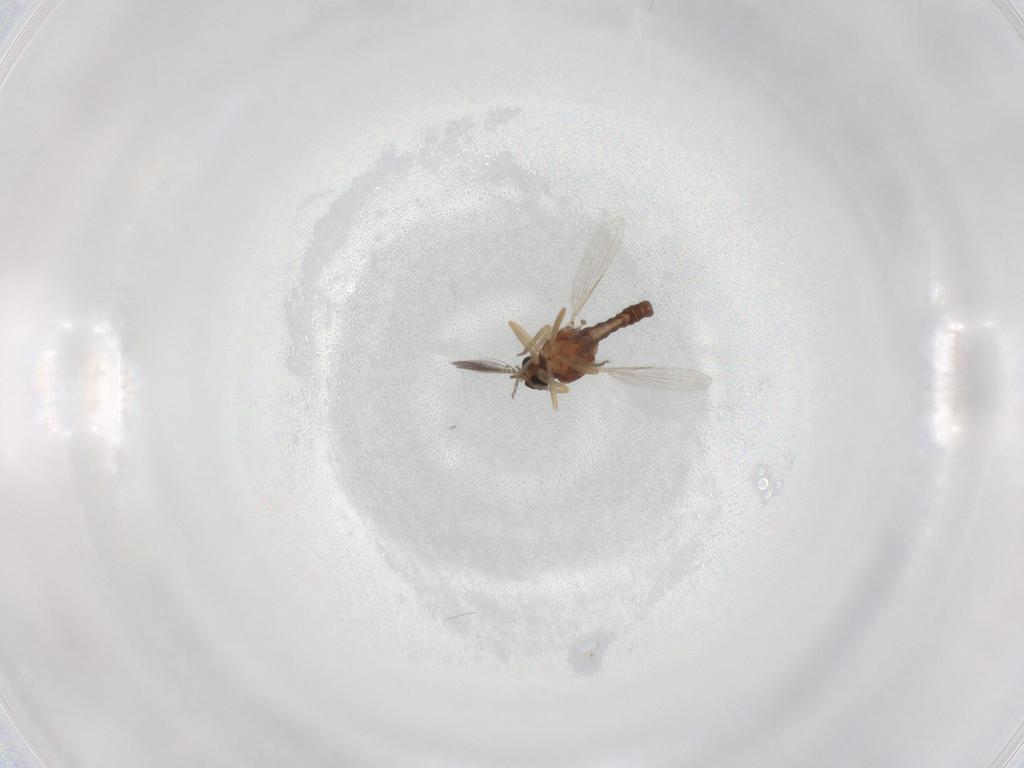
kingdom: Animalia
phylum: Arthropoda
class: Insecta
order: Diptera
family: Ceratopogonidae
